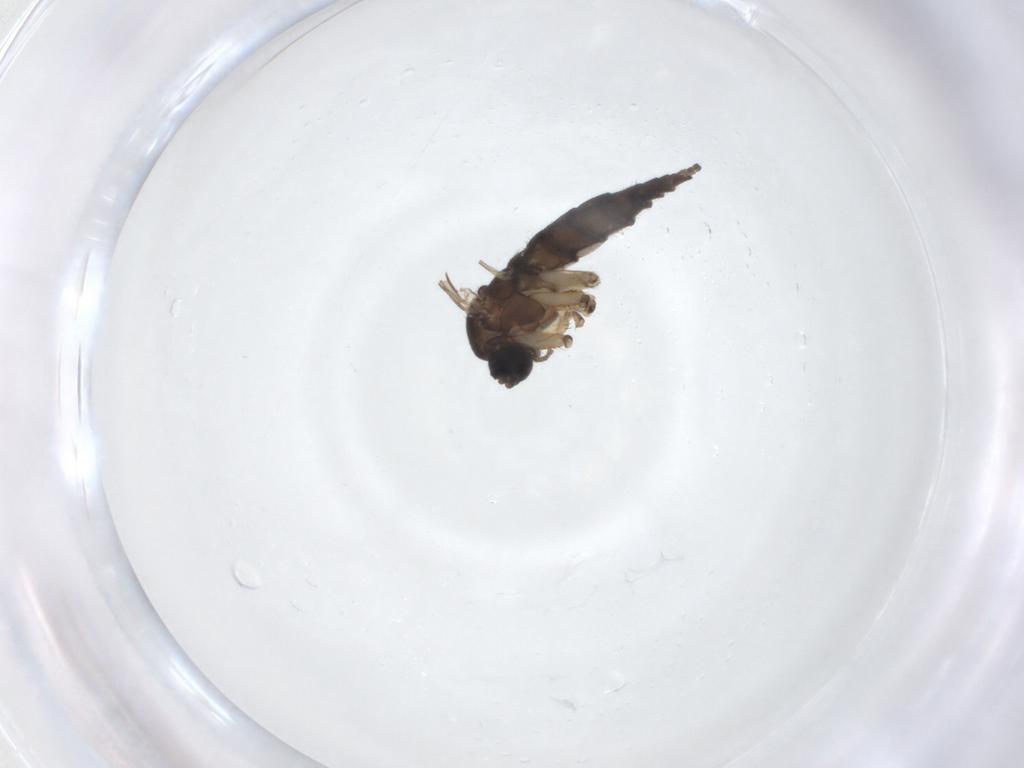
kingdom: Animalia
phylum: Arthropoda
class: Insecta
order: Diptera
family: Sciaridae
